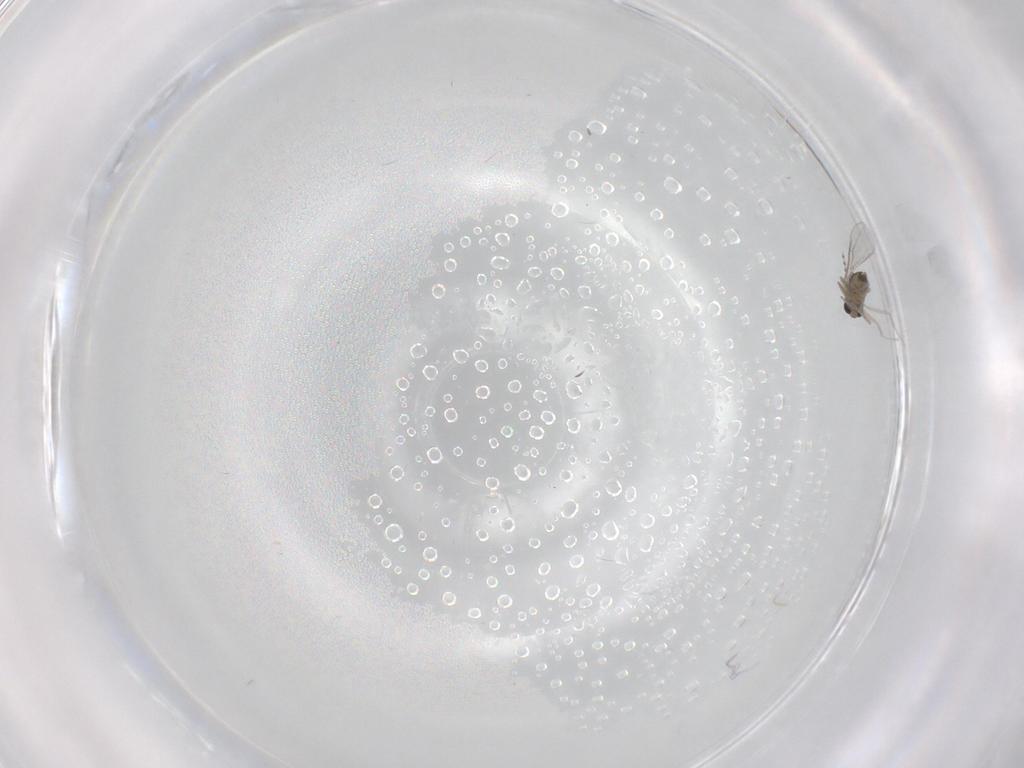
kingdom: Animalia
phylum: Arthropoda
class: Insecta
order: Diptera
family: Cecidomyiidae
